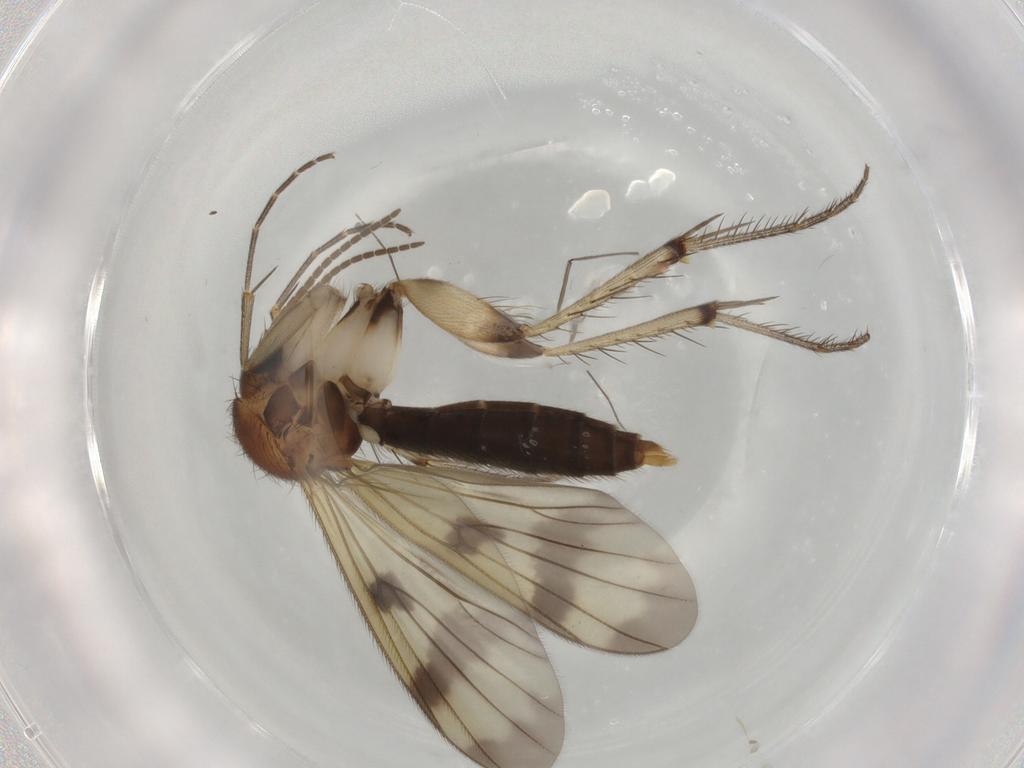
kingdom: Animalia
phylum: Arthropoda
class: Insecta
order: Diptera
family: Mycetophilidae
